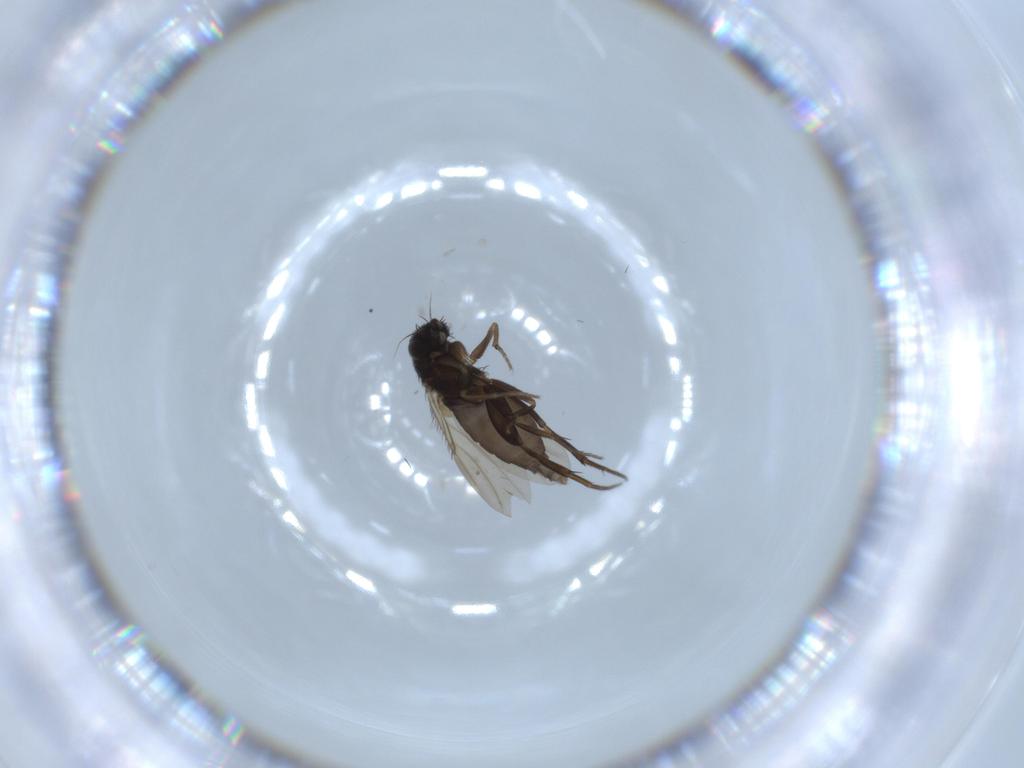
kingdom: Animalia
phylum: Arthropoda
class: Insecta
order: Diptera
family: Phoridae
